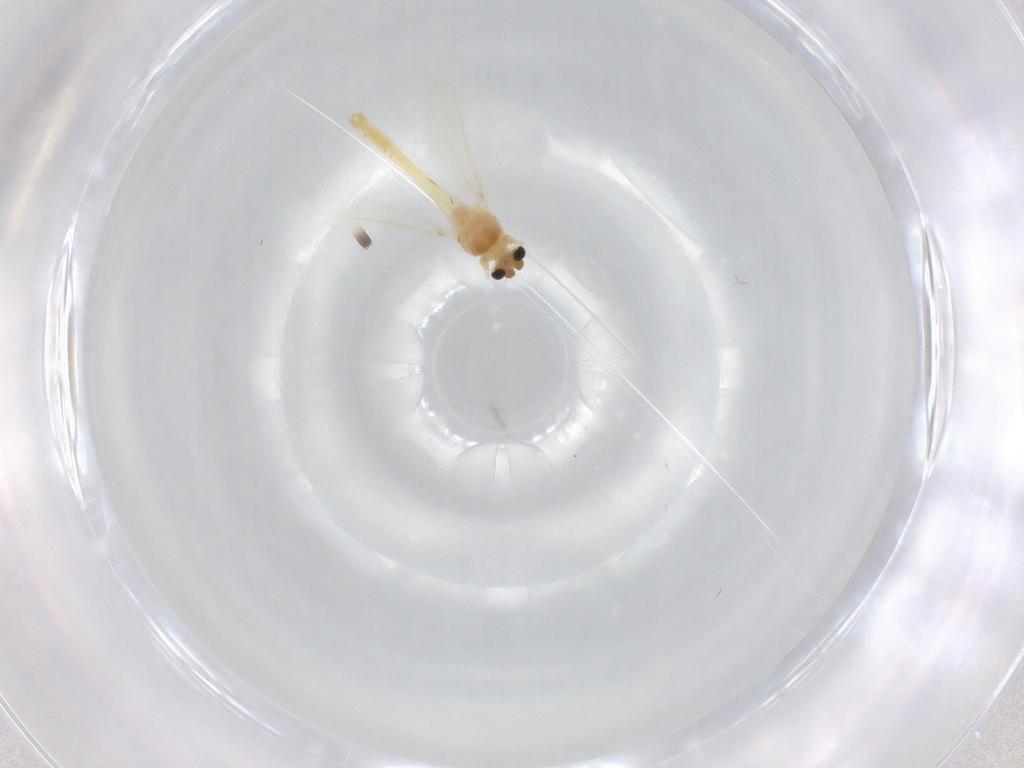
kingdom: Animalia
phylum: Arthropoda
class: Insecta
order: Diptera
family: Chironomidae
